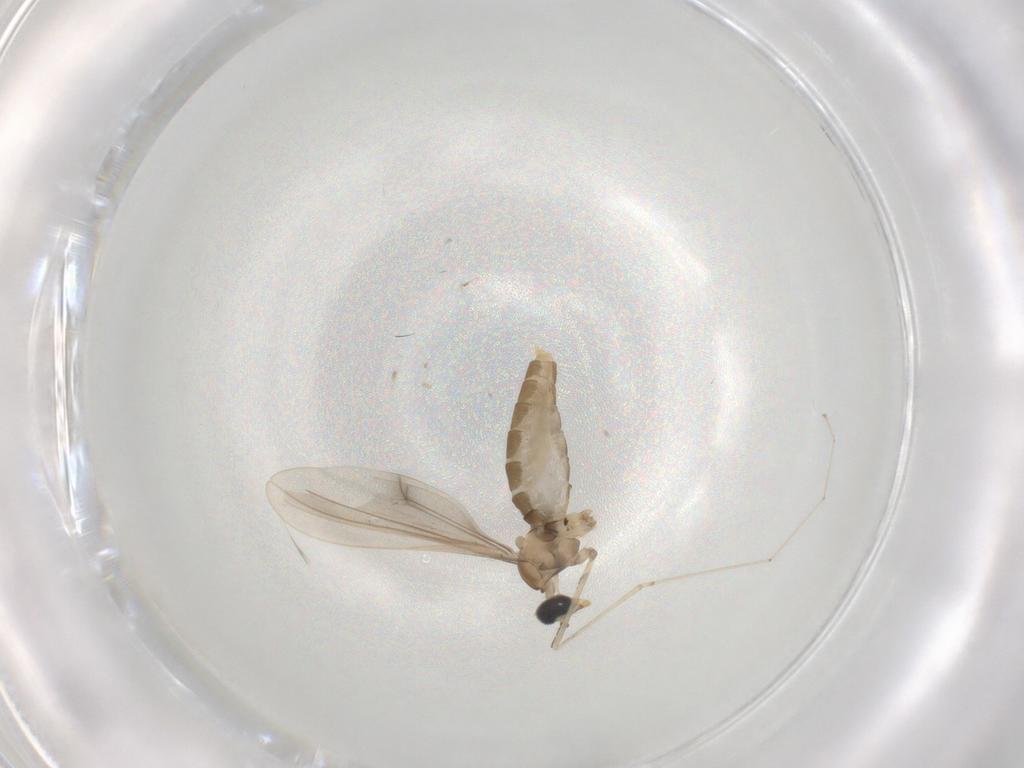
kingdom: Animalia
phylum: Arthropoda
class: Insecta
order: Diptera
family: Cecidomyiidae
